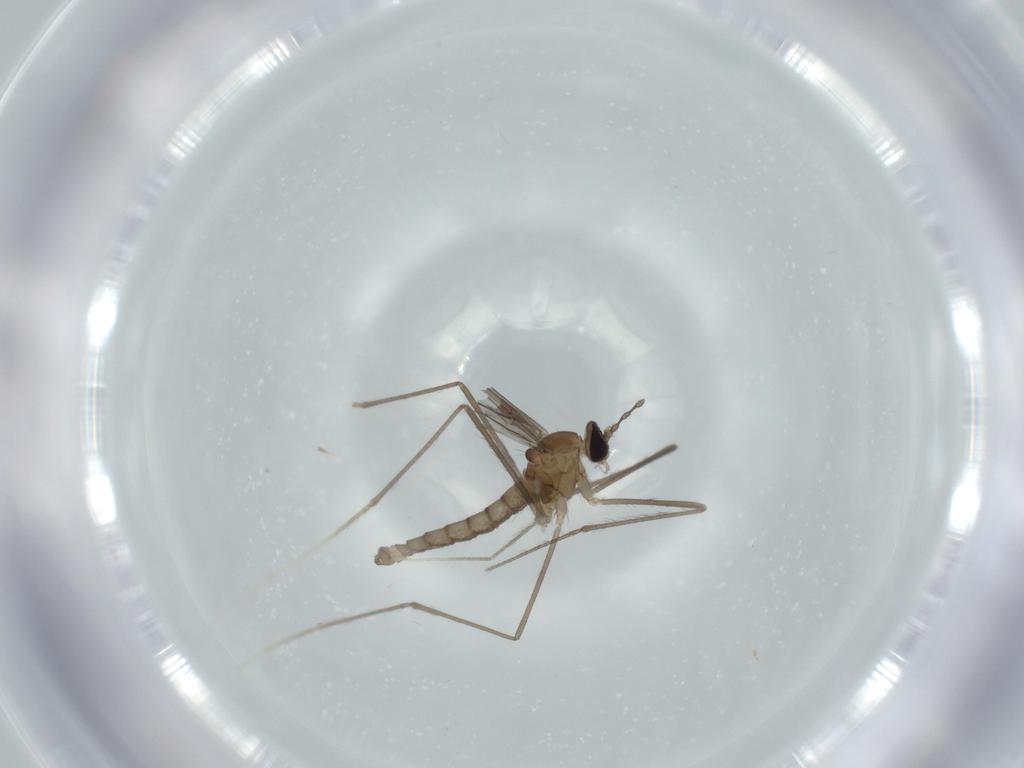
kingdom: Animalia
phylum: Arthropoda
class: Insecta
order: Diptera
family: Cecidomyiidae
